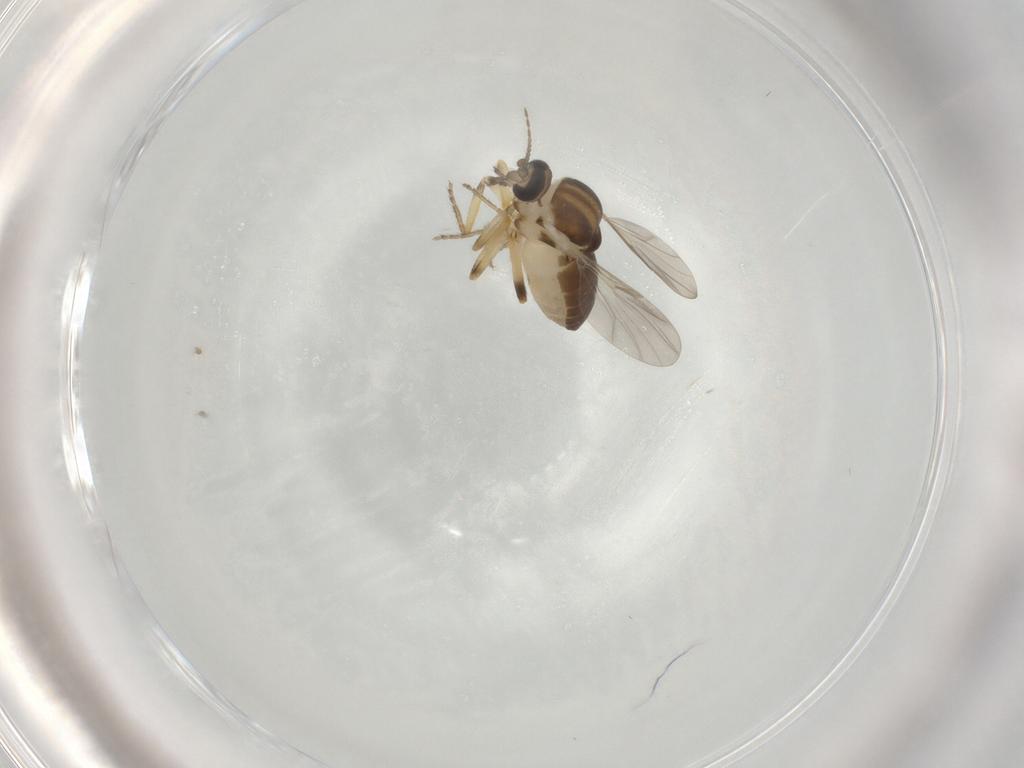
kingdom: Animalia
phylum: Arthropoda
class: Insecta
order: Diptera
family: Ceratopogonidae
